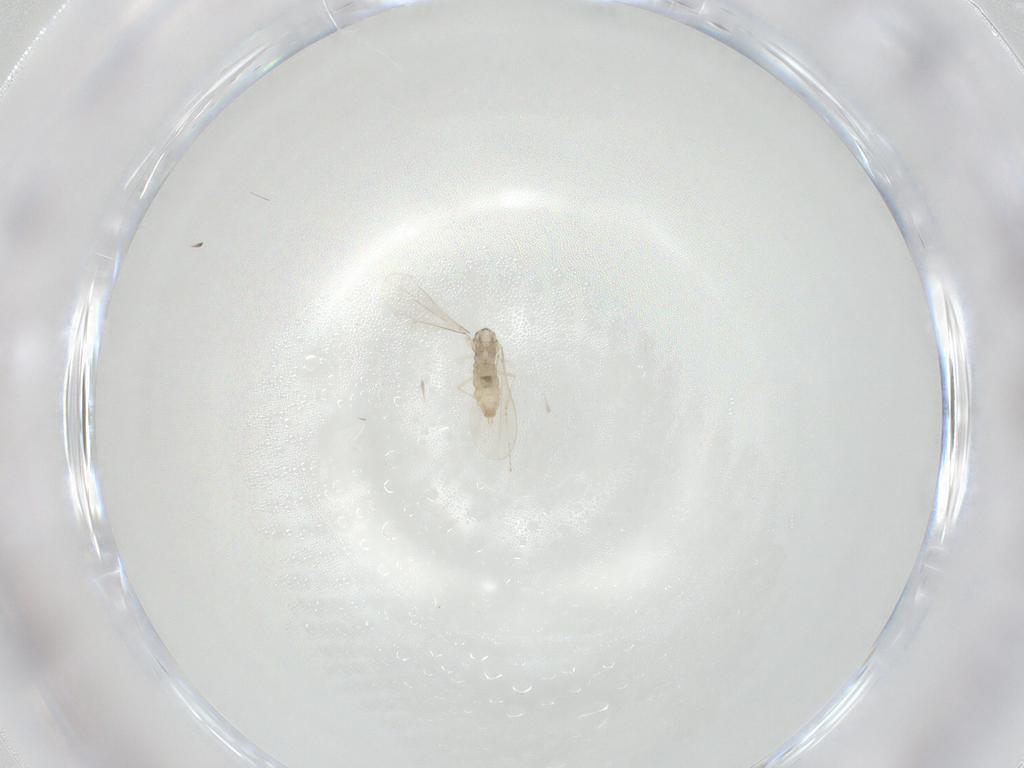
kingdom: Animalia
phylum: Arthropoda
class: Insecta
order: Diptera
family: Cecidomyiidae
